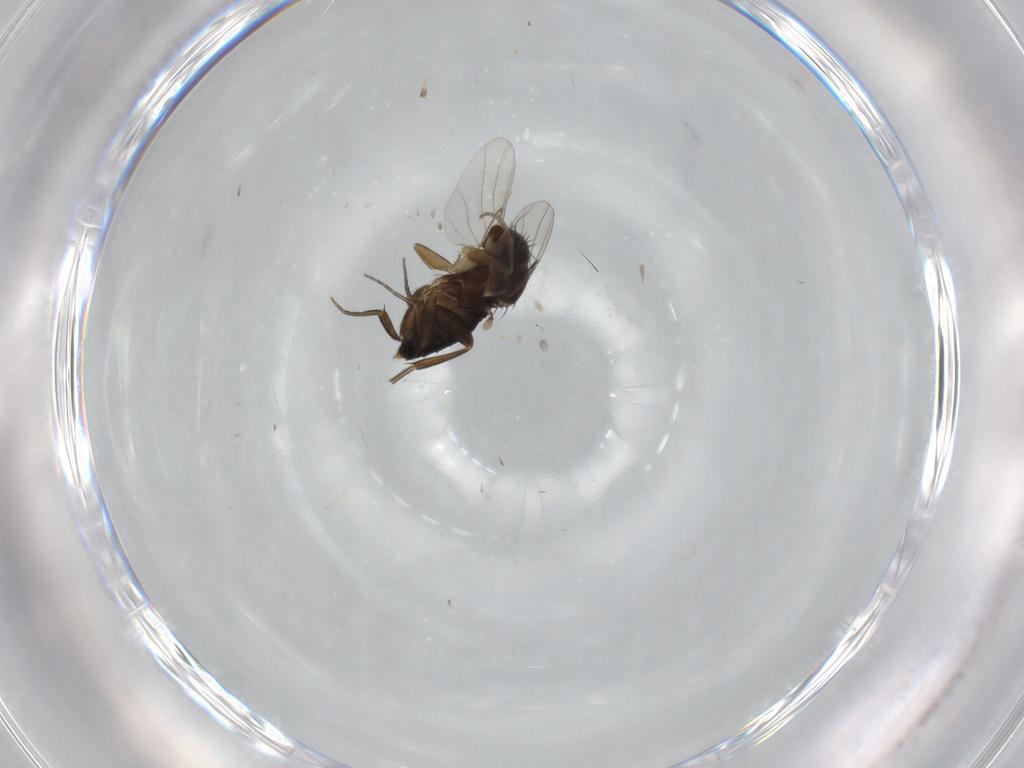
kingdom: Animalia
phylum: Arthropoda
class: Insecta
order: Diptera
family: Phoridae
